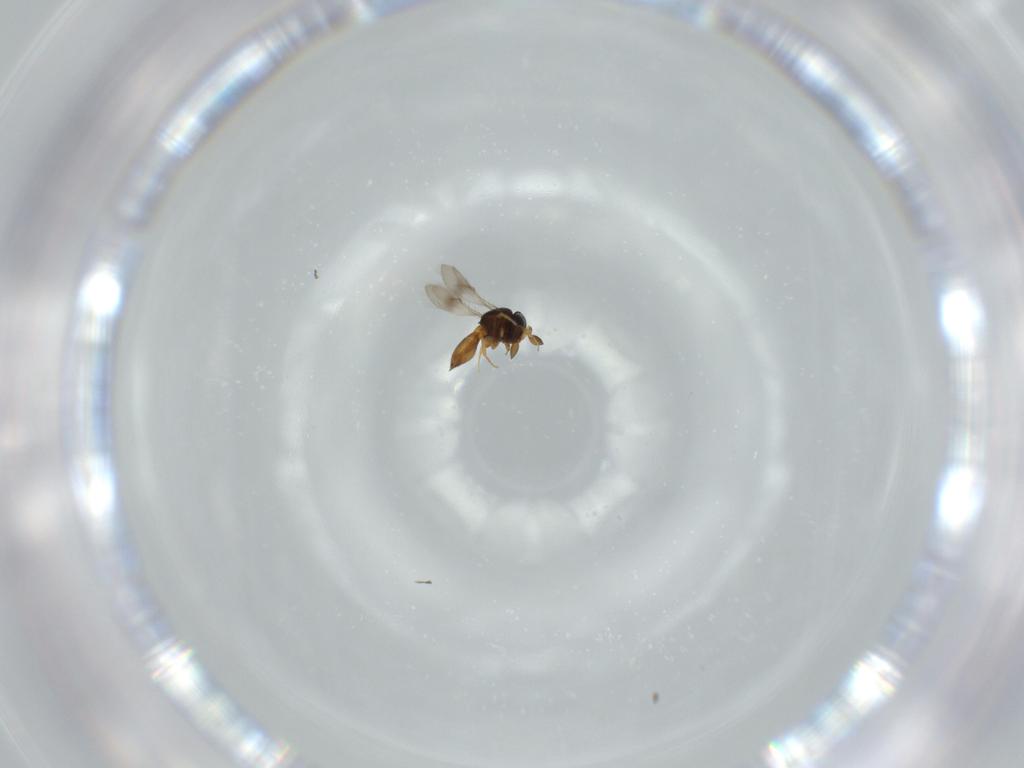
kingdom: Animalia
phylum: Arthropoda
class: Insecta
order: Hymenoptera
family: Scelionidae
